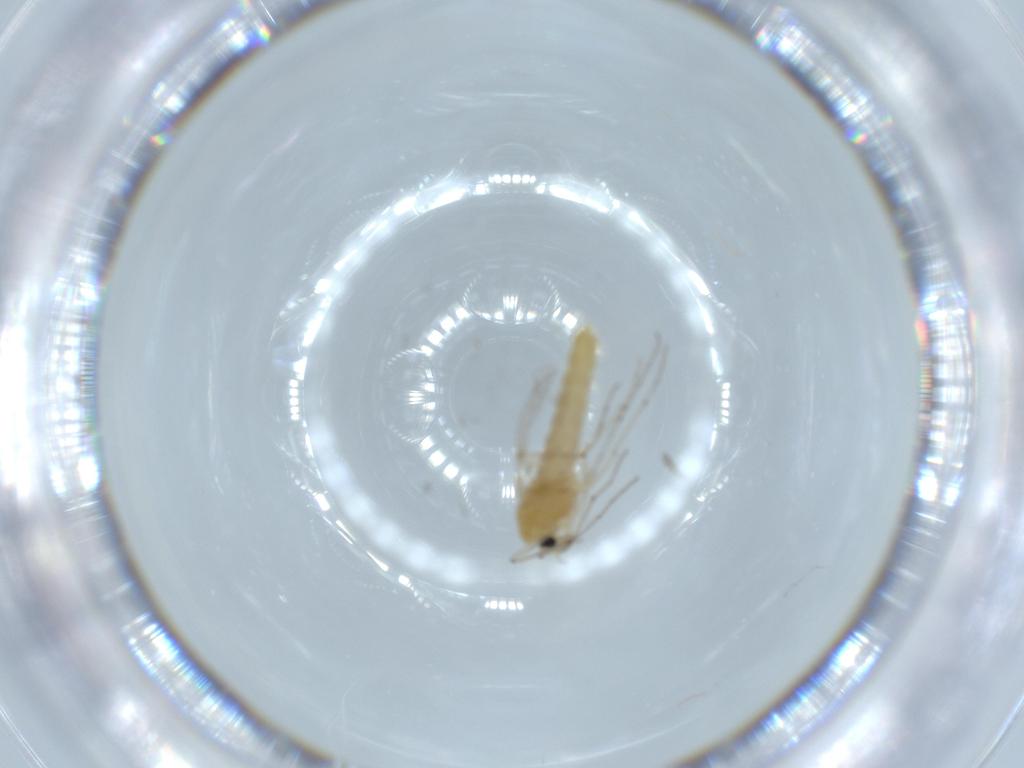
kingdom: Animalia
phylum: Arthropoda
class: Insecta
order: Diptera
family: Chironomidae
